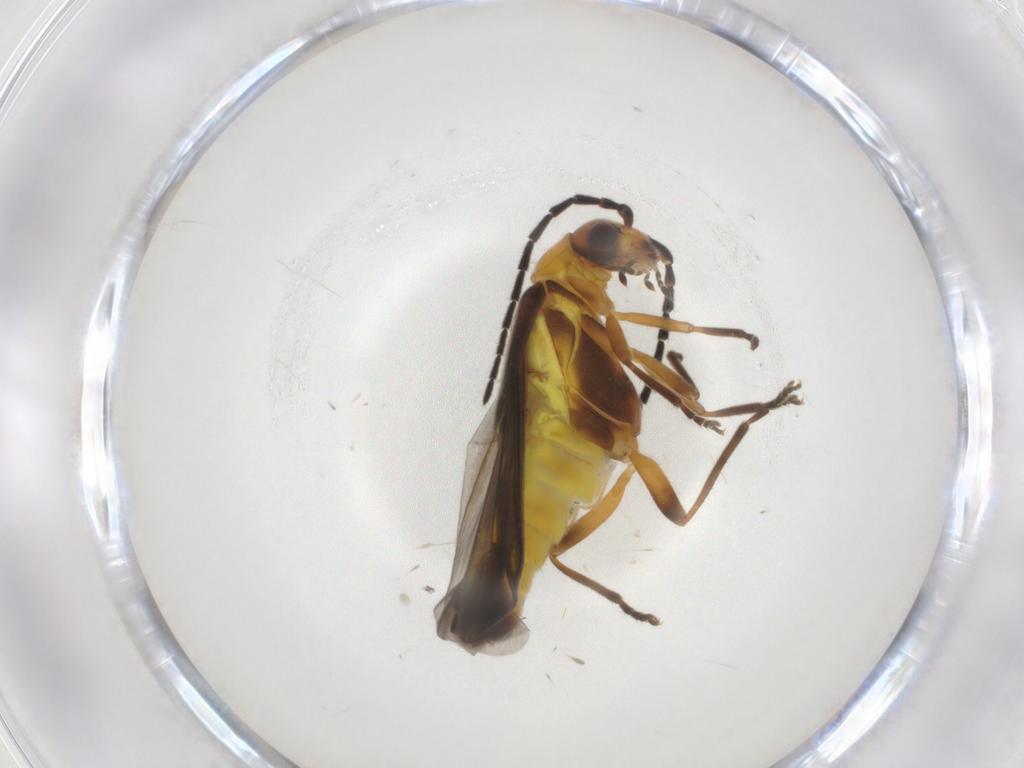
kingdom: Animalia
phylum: Arthropoda
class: Insecta
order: Coleoptera
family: Cantharidae
